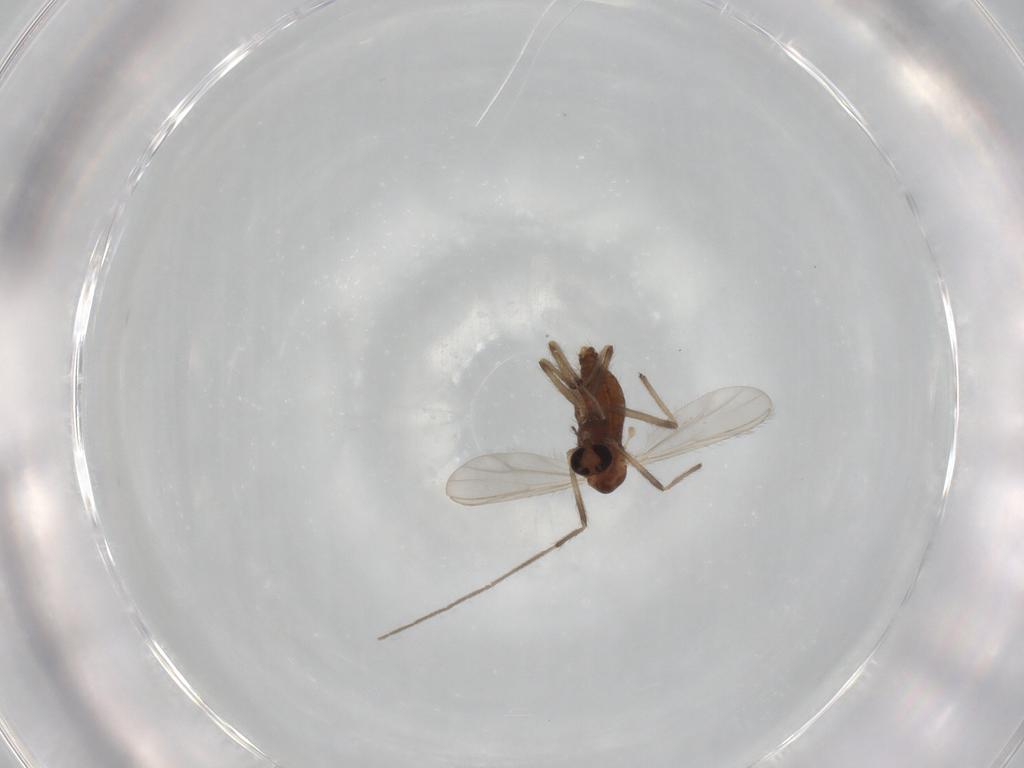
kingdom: Animalia
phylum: Arthropoda
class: Insecta
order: Diptera
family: Chironomidae
